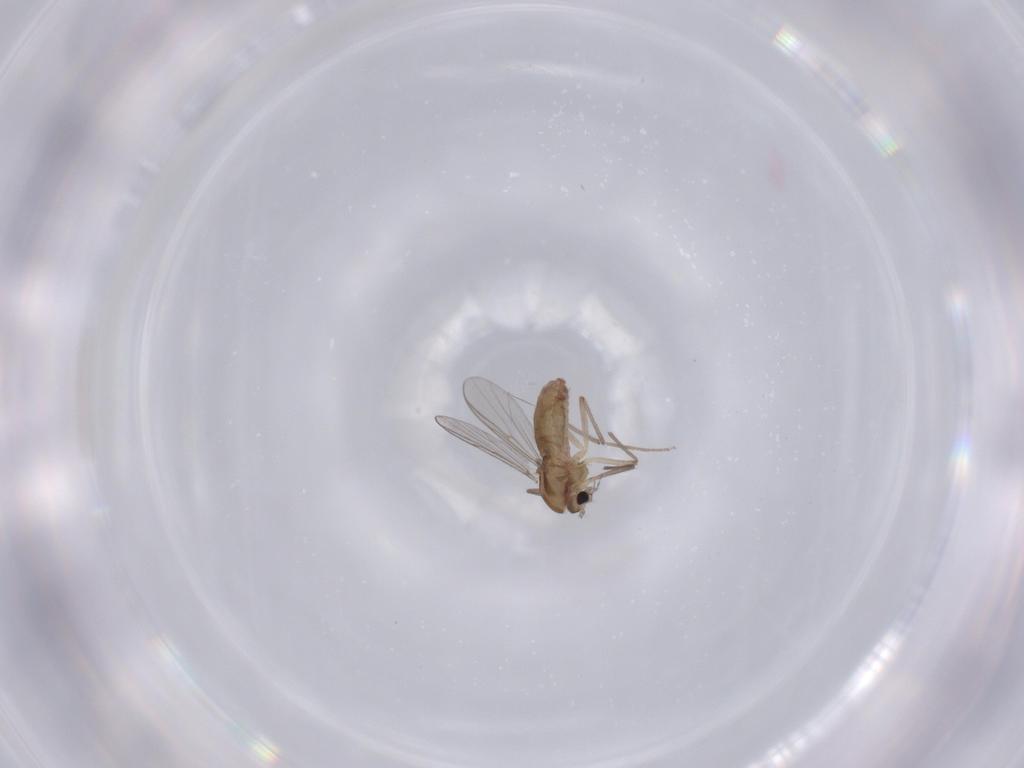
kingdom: Animalia
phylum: Arthropoda
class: Insecta
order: Diptera
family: Chironomidae
